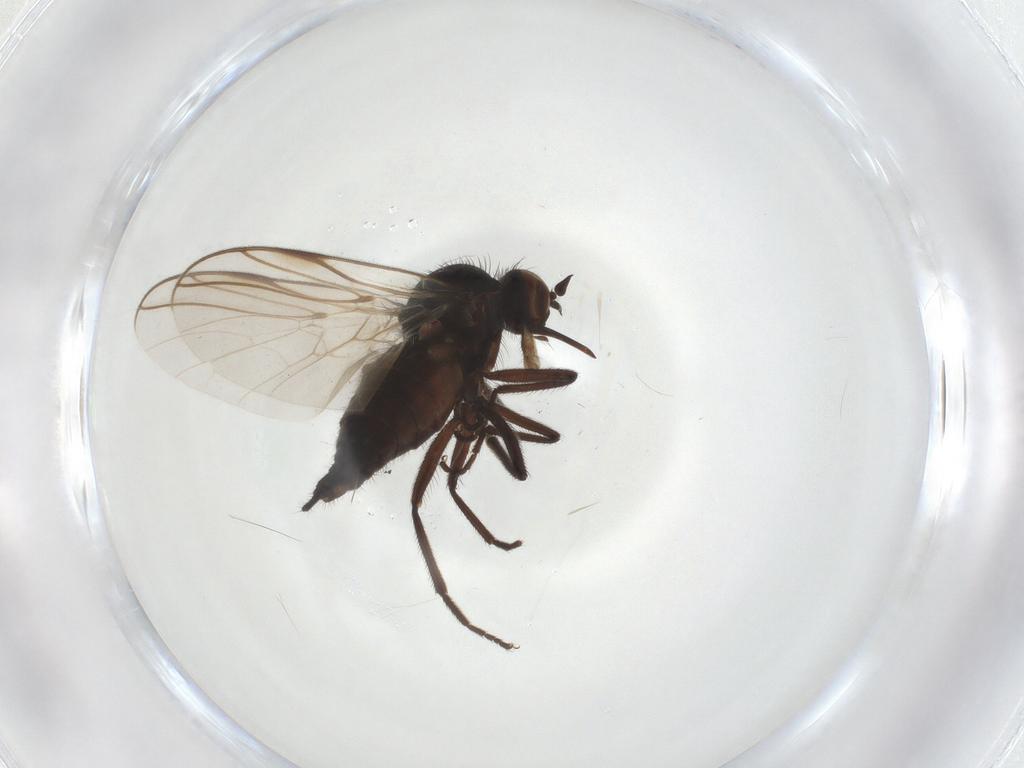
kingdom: Animalia
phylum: Arthropoda
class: Insecta
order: Diptera
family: Empididae
